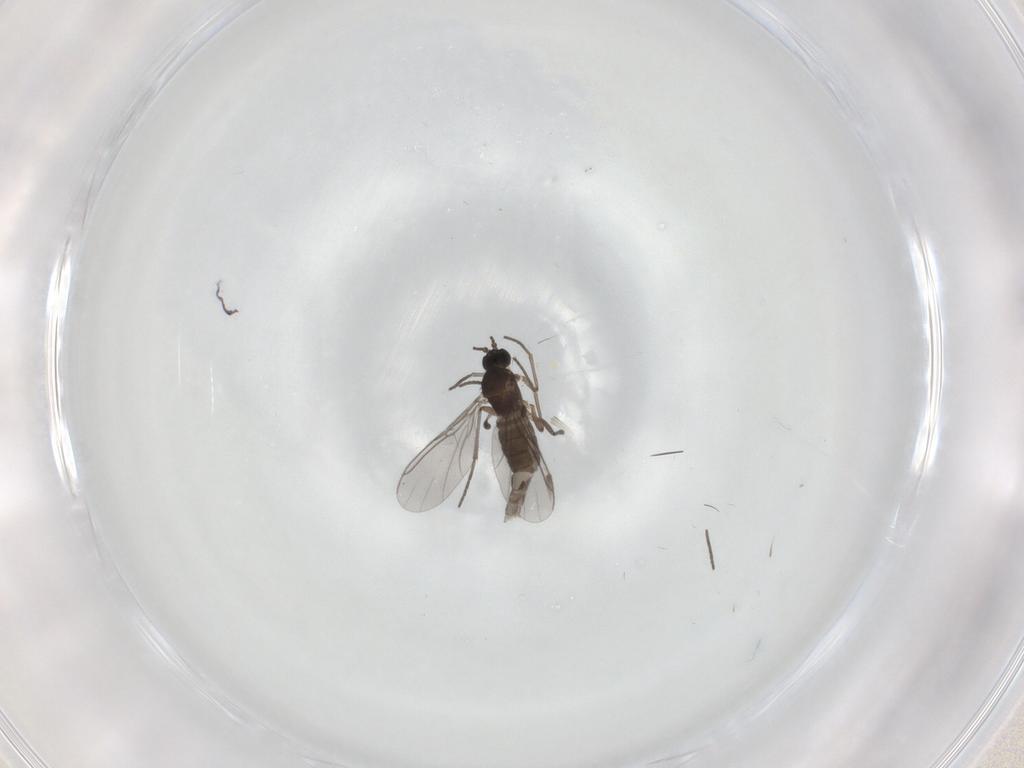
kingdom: Animalia
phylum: Arthropoda
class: Insecta
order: Diptera
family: Sciaridae
